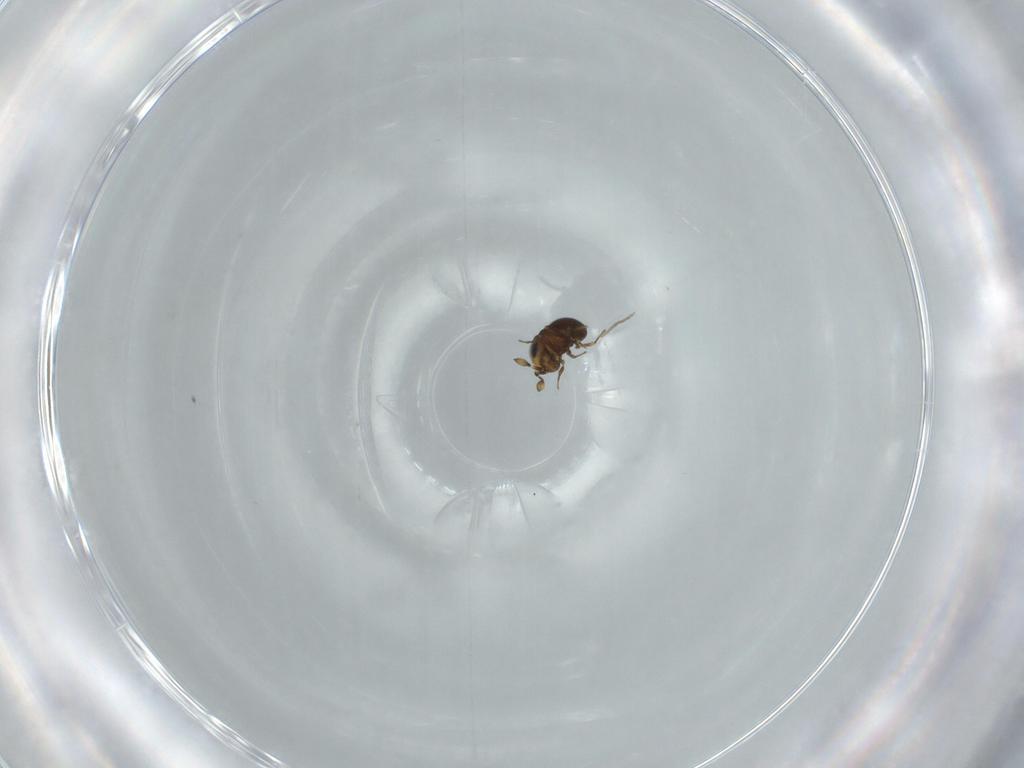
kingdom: Animalia
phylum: Arthropoda
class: Insecta
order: Hymenoptera
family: Scelionidae
